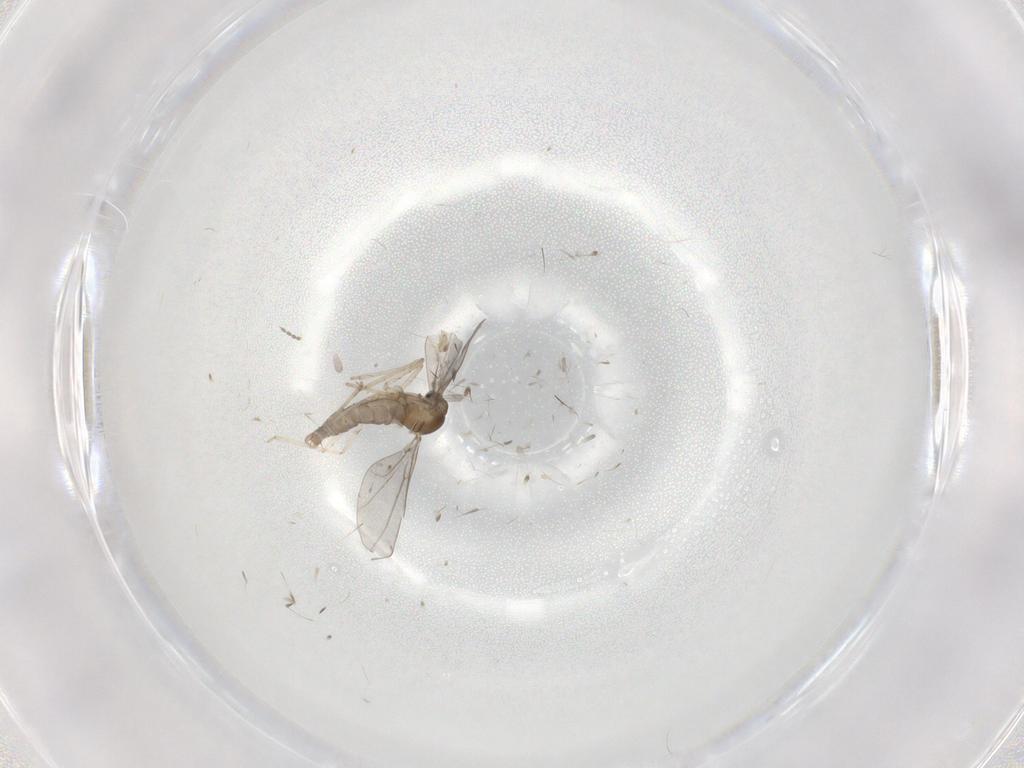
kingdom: Animalia
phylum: Arthropoda
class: Insecta
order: Diptera
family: Cecidomyiidae
